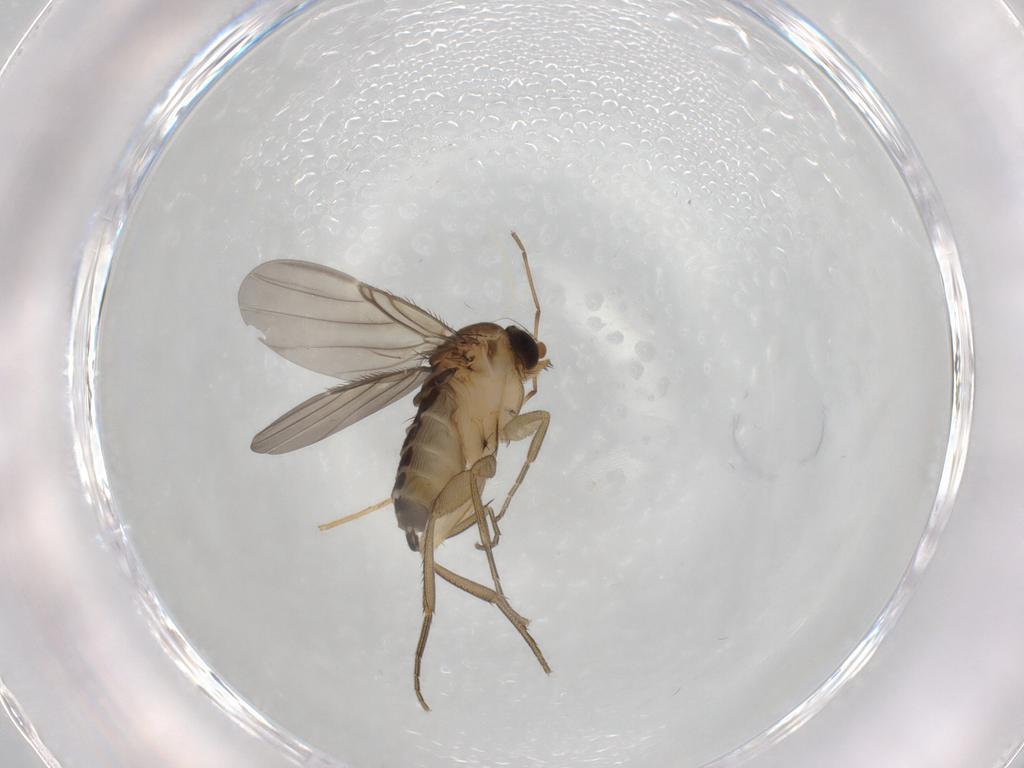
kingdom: Animalia
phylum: Arthropoda
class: Insecta
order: Diptera
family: Chironomidae
